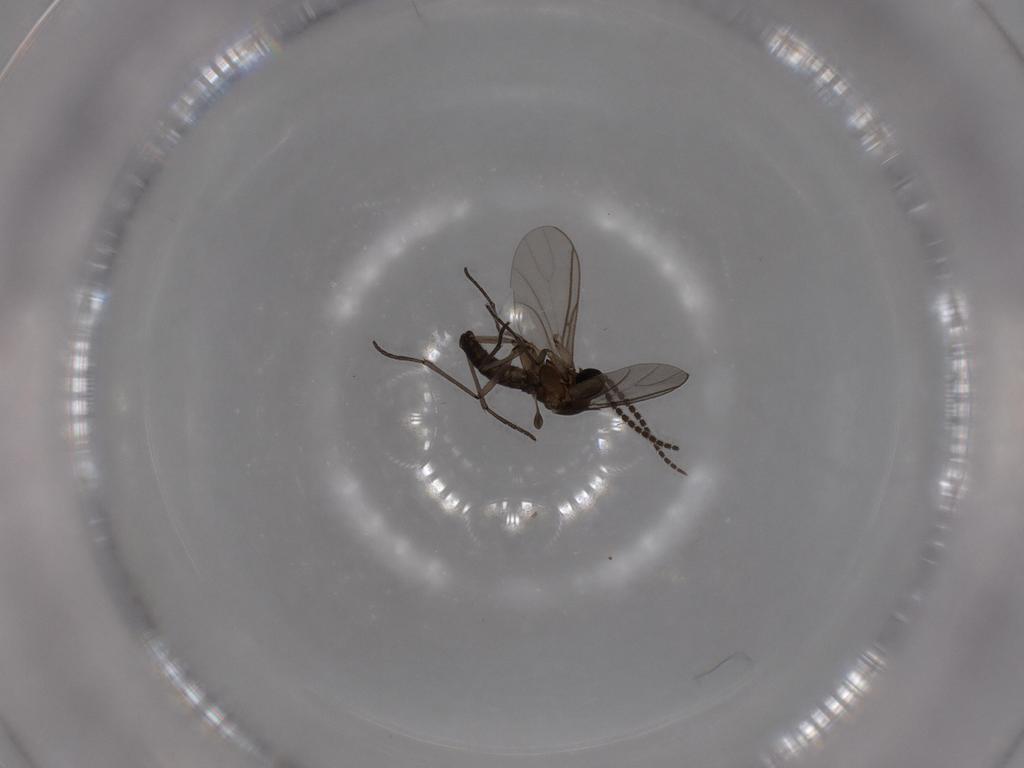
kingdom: Animalia
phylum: Arthropoda
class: Insecta
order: Diptera
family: Sciaridae
